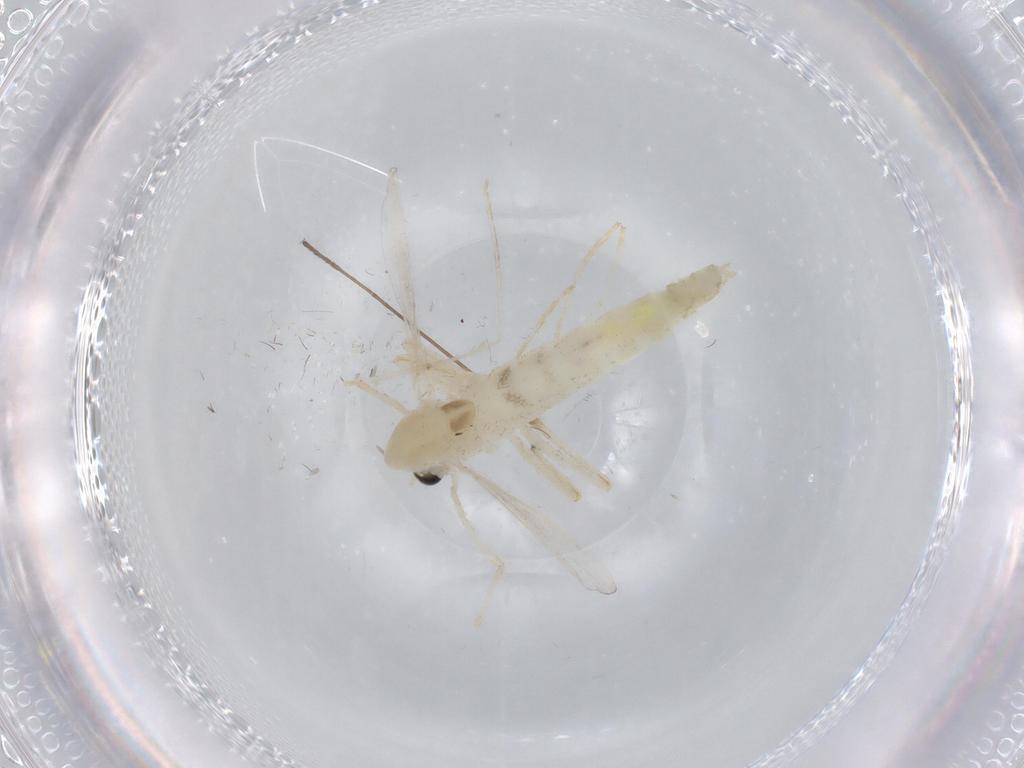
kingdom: Animalia
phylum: Arthropoda
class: Insecta
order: Diptera
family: Chironomidae
